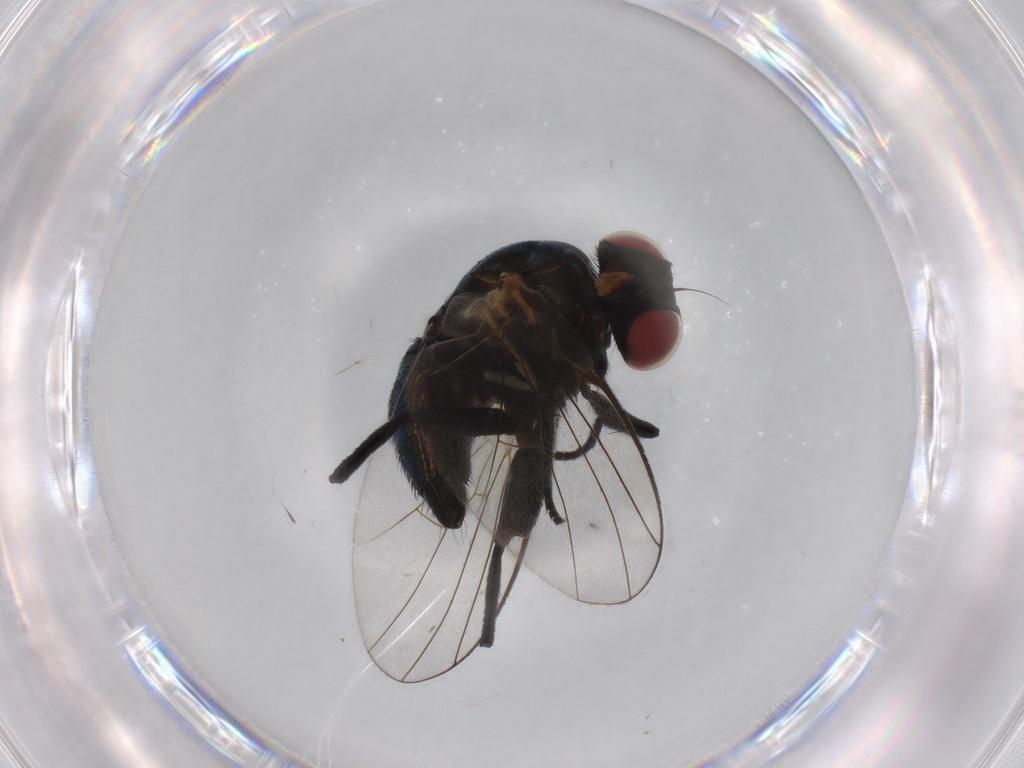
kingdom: Animalia
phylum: Arthropoda
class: Insecta
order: Diptera
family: Agromyzidae
